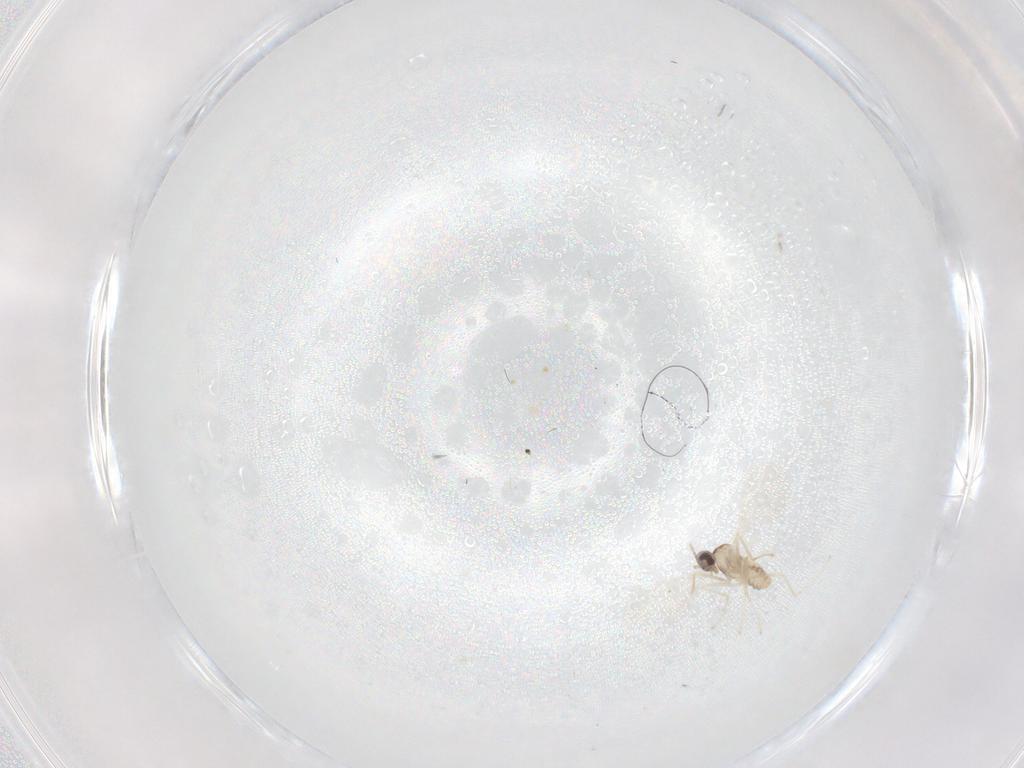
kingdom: Animalia
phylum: Arthropoda
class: Insecta
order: Diptera
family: Cecidomyiidae
